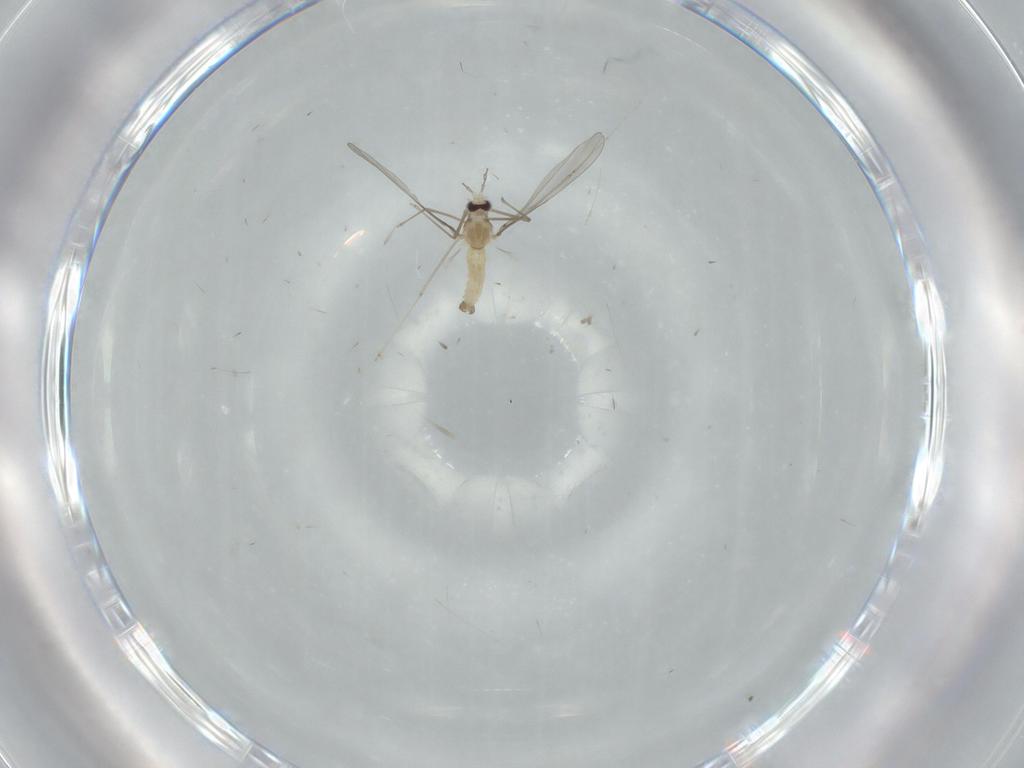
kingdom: Animalia
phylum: Arthropoda
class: Insecta
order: Diptera
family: Cecidomyiidae
